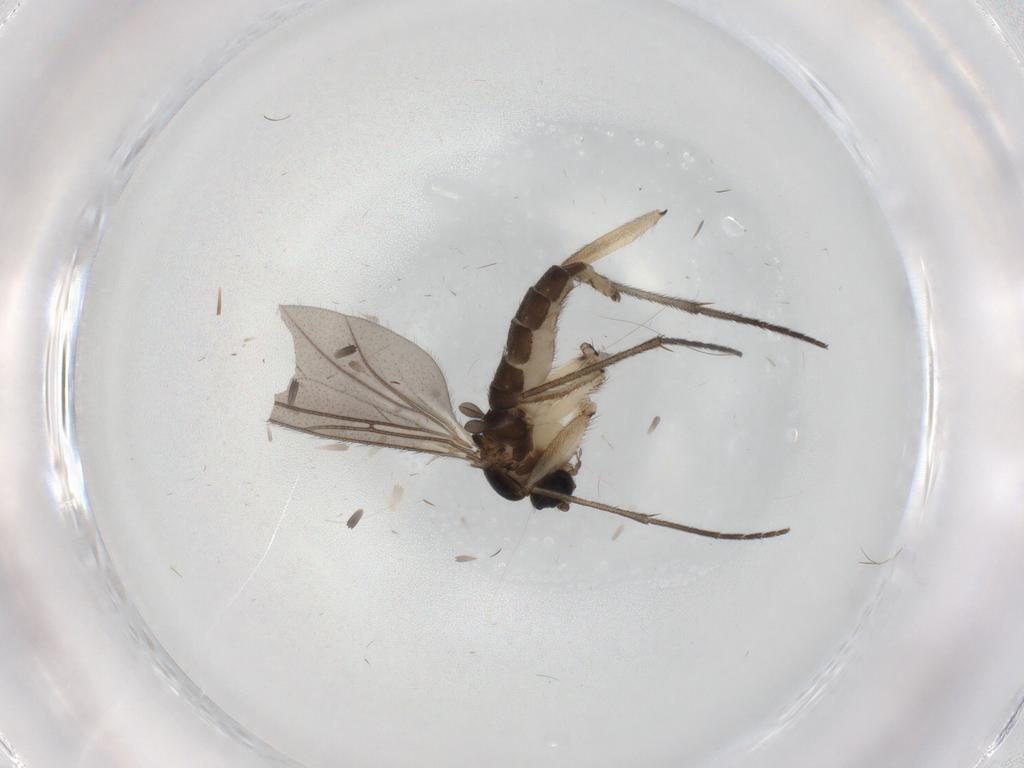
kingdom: Animalia
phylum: Arthropoda
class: Insecta
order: Diptera
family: Sciaridae
